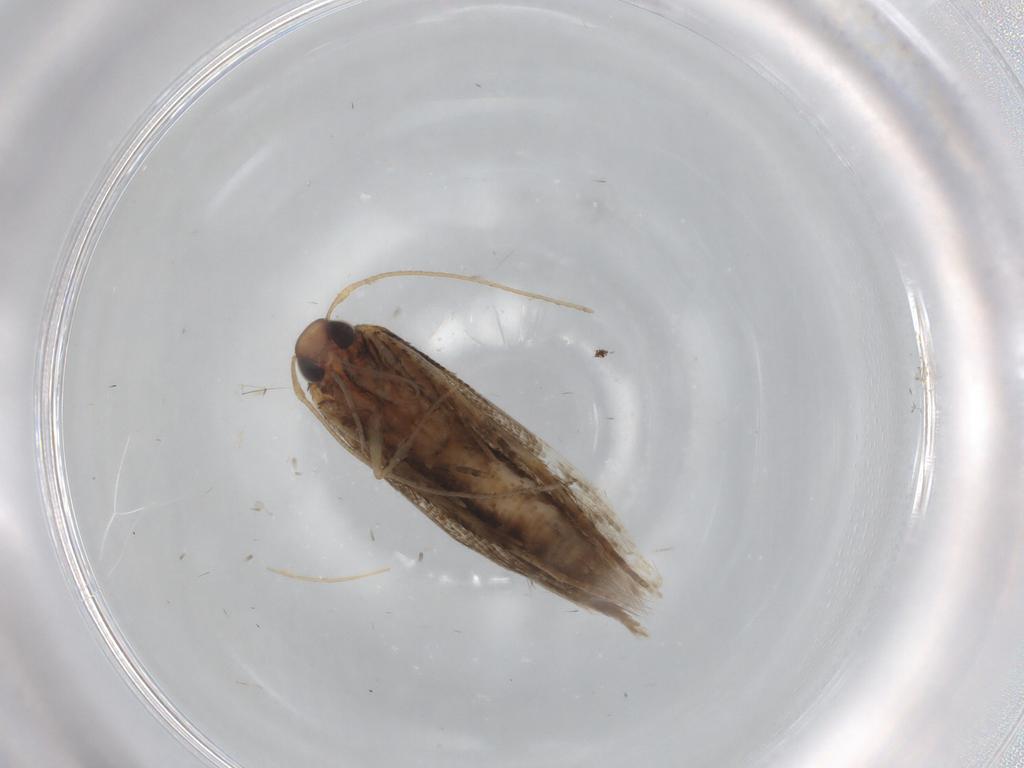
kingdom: Animalia
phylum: Arthropoda
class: Insecta
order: Lepidoptera
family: Cosmopterigidae
